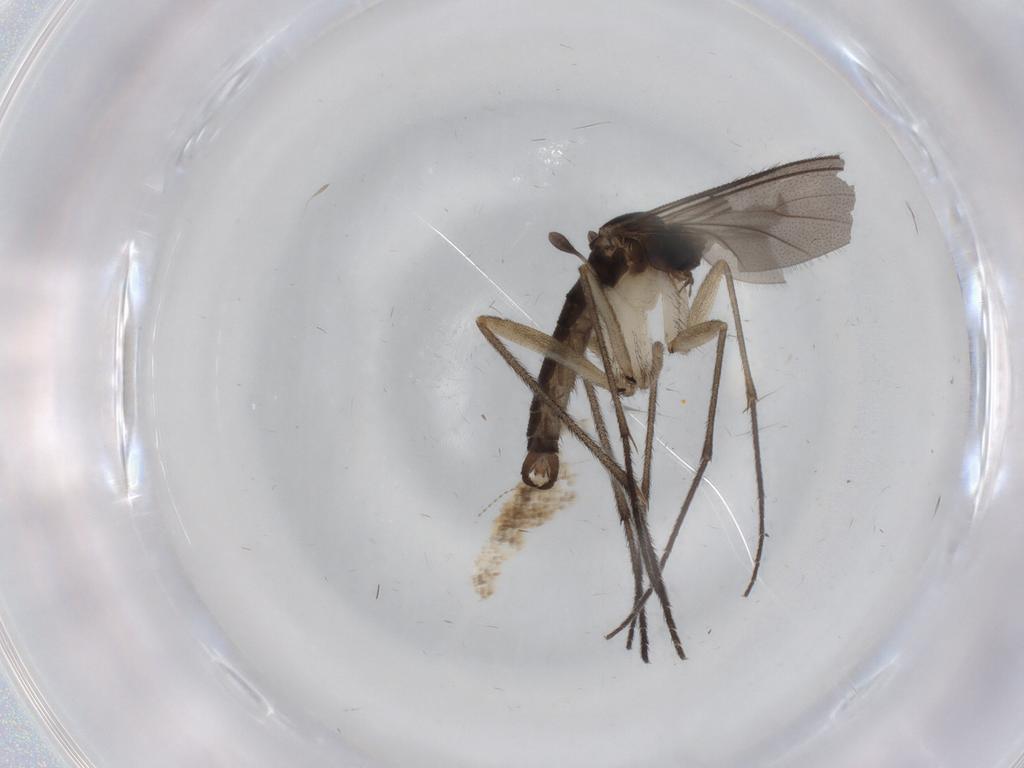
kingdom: Animalia
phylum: Arthropoda
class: Insecta
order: Diptera
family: Sciaridae
